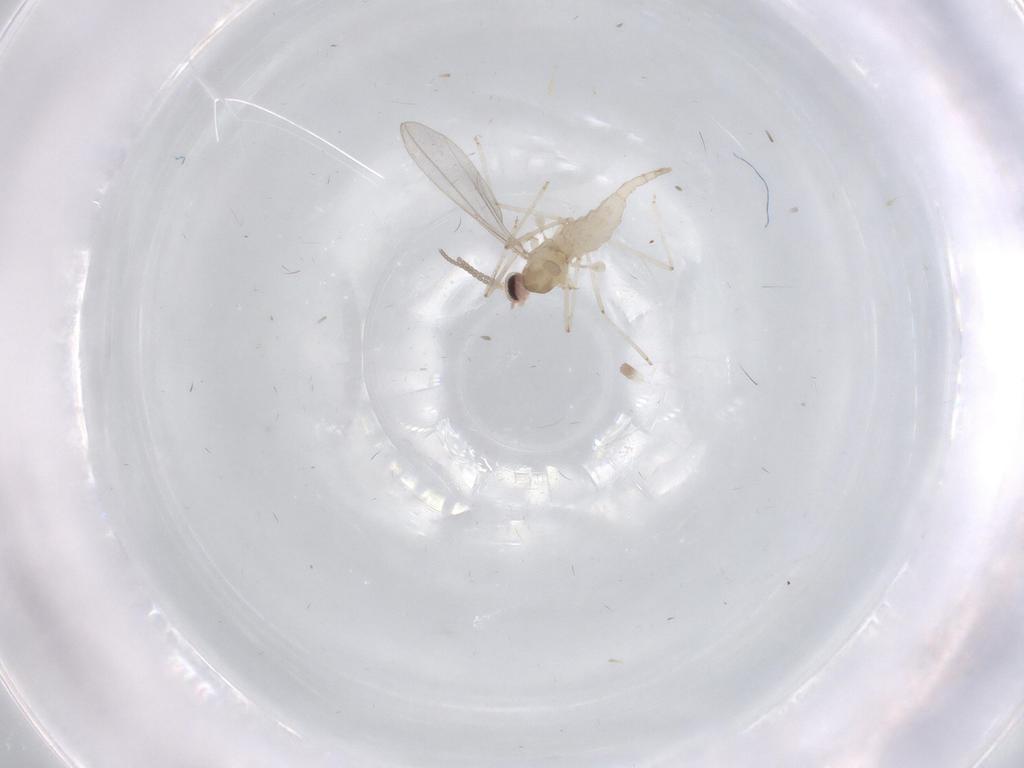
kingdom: Animalia
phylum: Arthropoda
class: Insecta
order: Diptera
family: Cecidomyiidae
